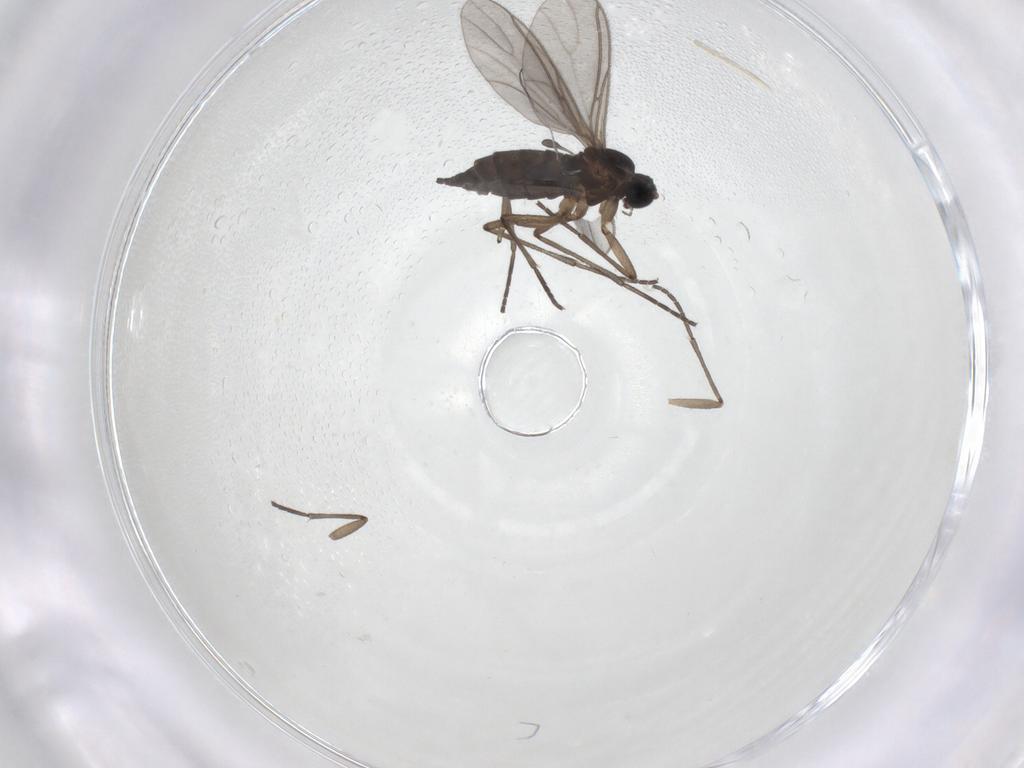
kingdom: Animalia
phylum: Arthropoda
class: Insecta
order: Diptera
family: Sciaridae
